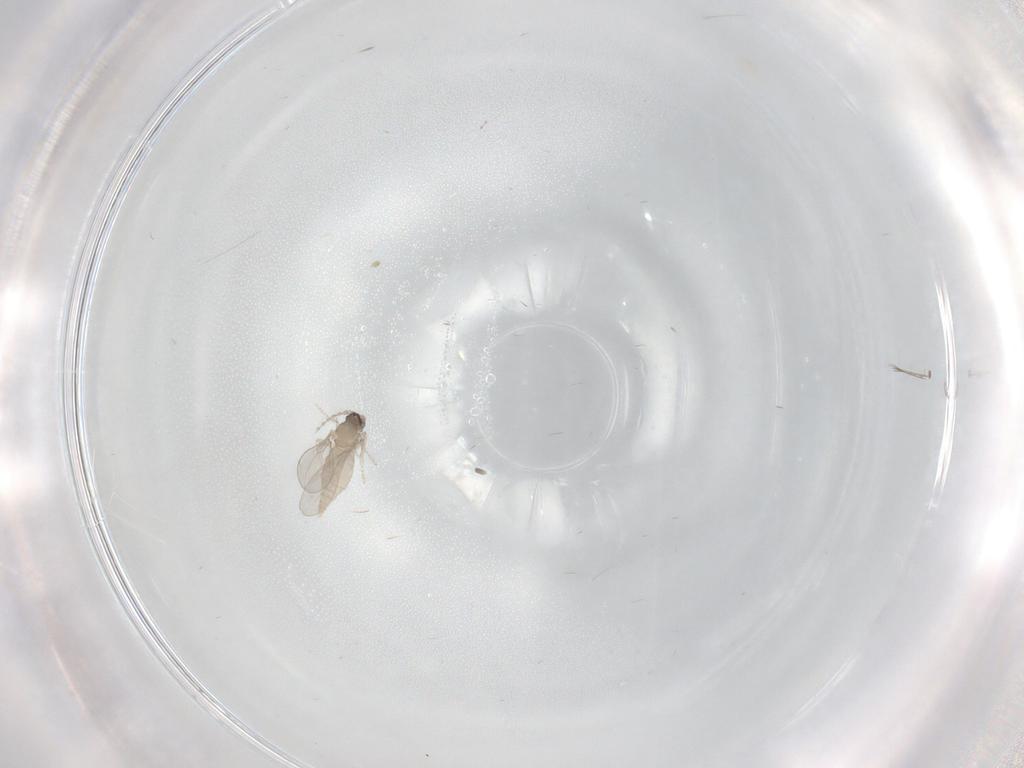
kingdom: Animalia
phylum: Arthropoda
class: Insecta
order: Diptera
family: Cecidomyiidae
